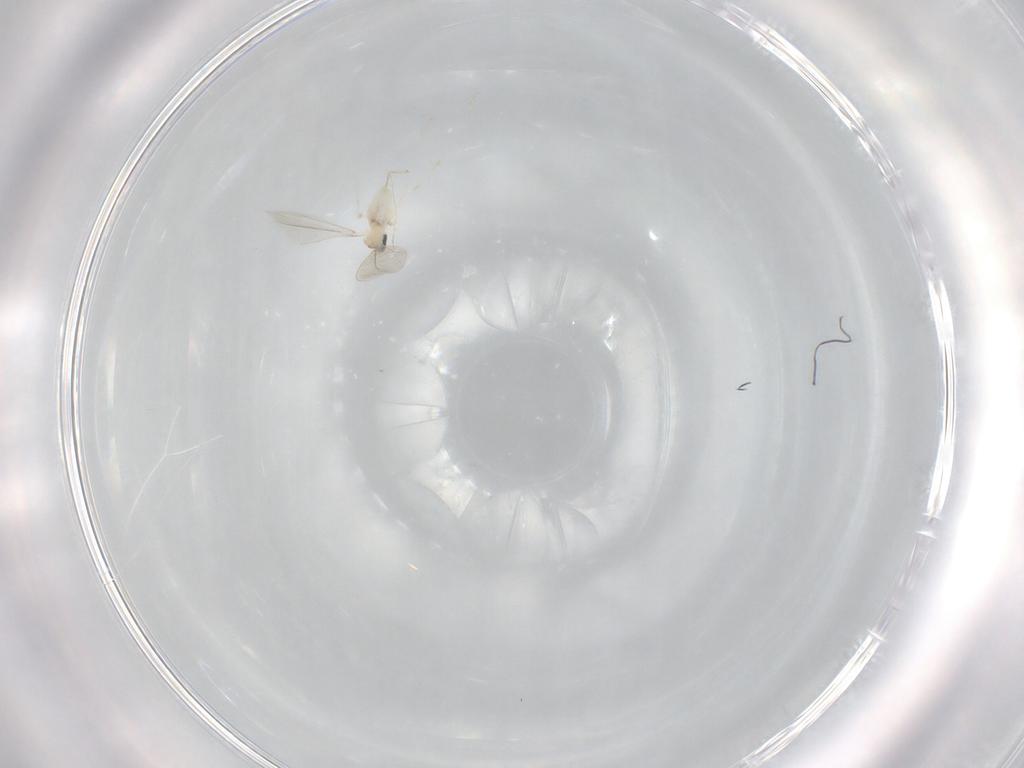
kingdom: Animalia
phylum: Arthropoda
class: Insecta
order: Diptera
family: Cecidomyiidae
